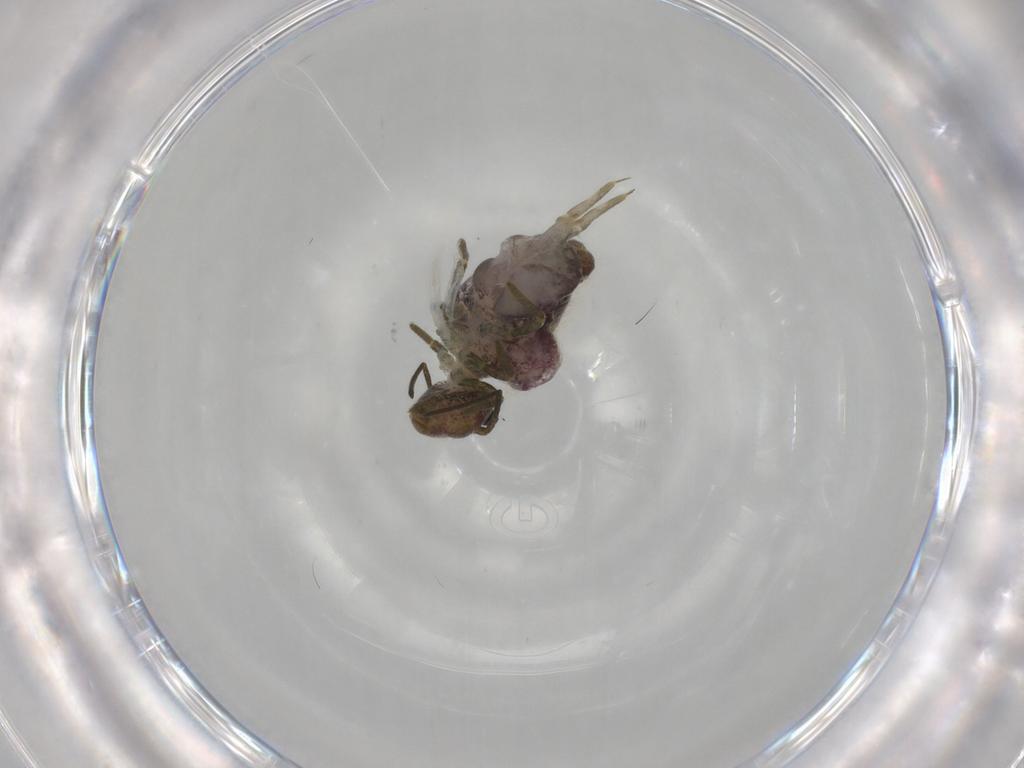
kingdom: Animalia
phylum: Arthropoda
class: Collembola
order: Symphypleona
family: Sminthuridae
